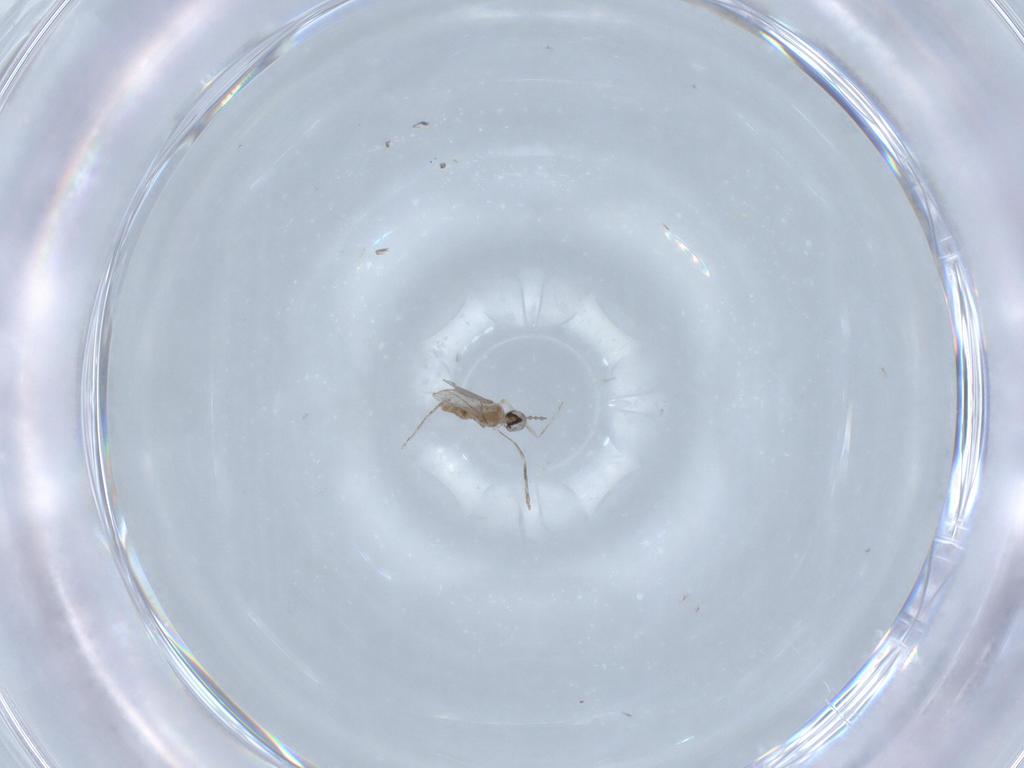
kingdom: Animalia
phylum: Arthropoda
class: Insecta
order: Diptera
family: Cecidomyiidae
